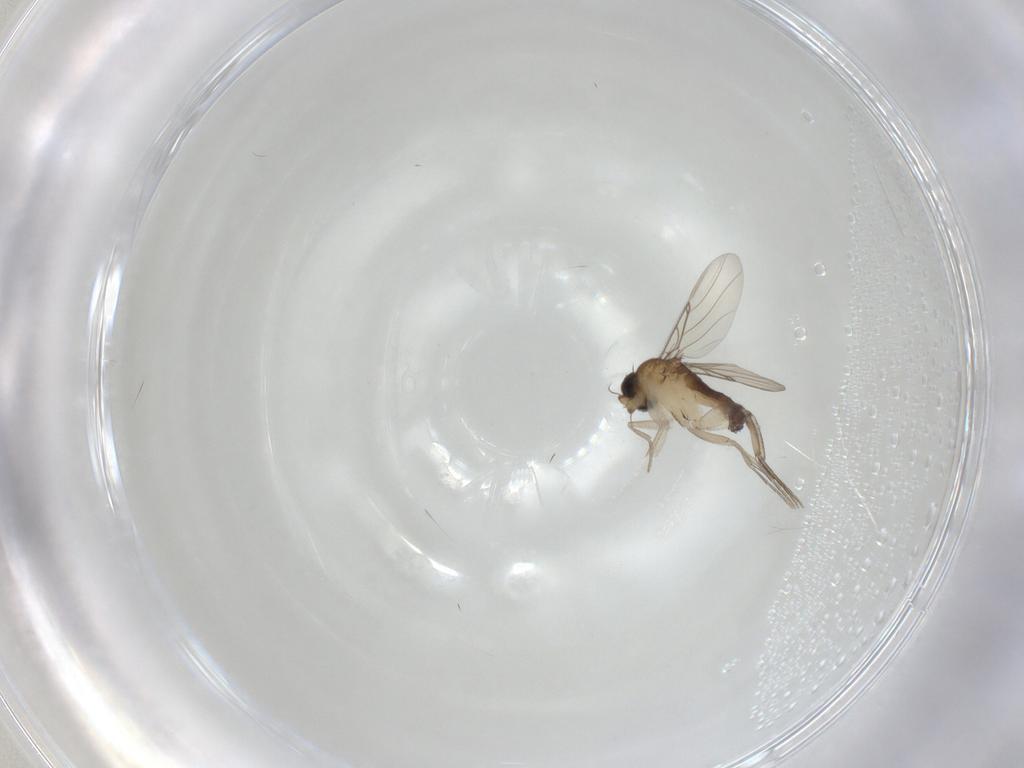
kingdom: Animalia
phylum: Arthropoda
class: Insecta
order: Diptera
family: Phoridae
